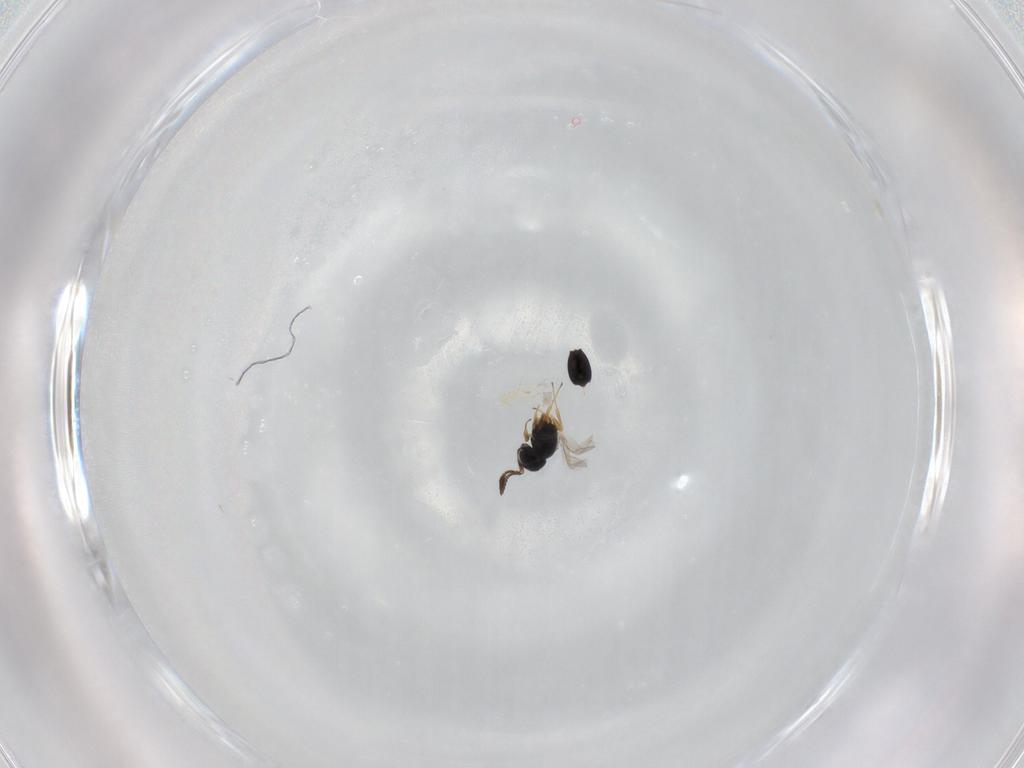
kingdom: Animalia
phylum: Arthropoda
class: Insecta
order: Hymenoptera
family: Scelionidae
